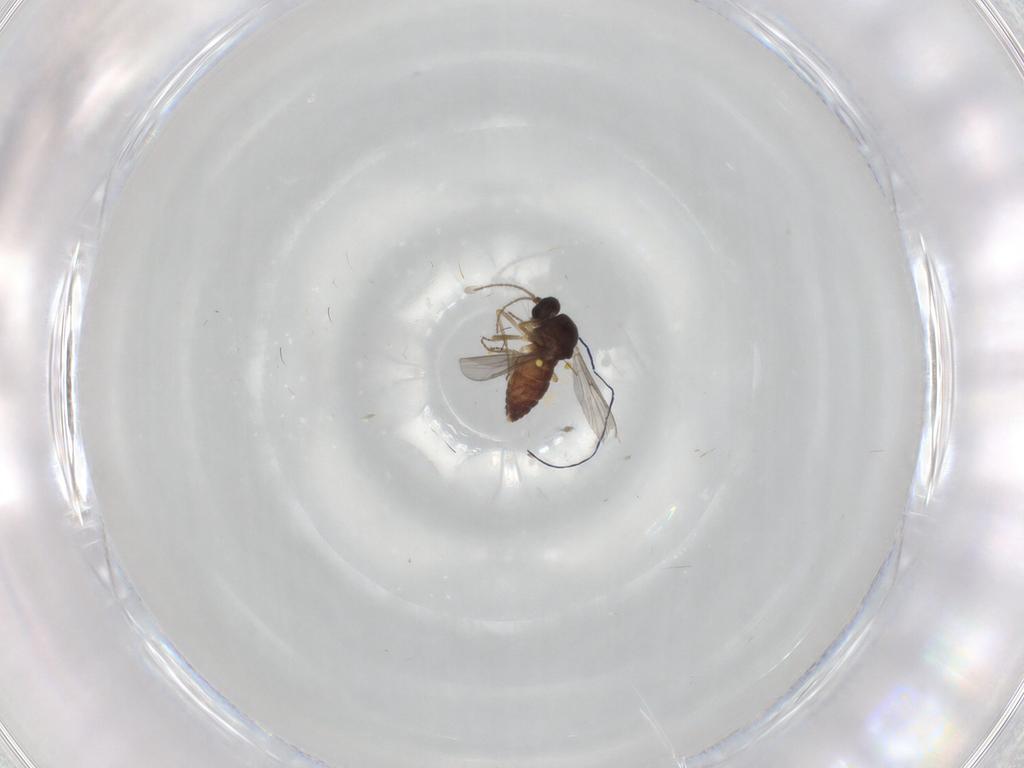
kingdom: Animalia
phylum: Arthropoda
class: Insecta
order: Diptera
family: Ceratopogonidae
